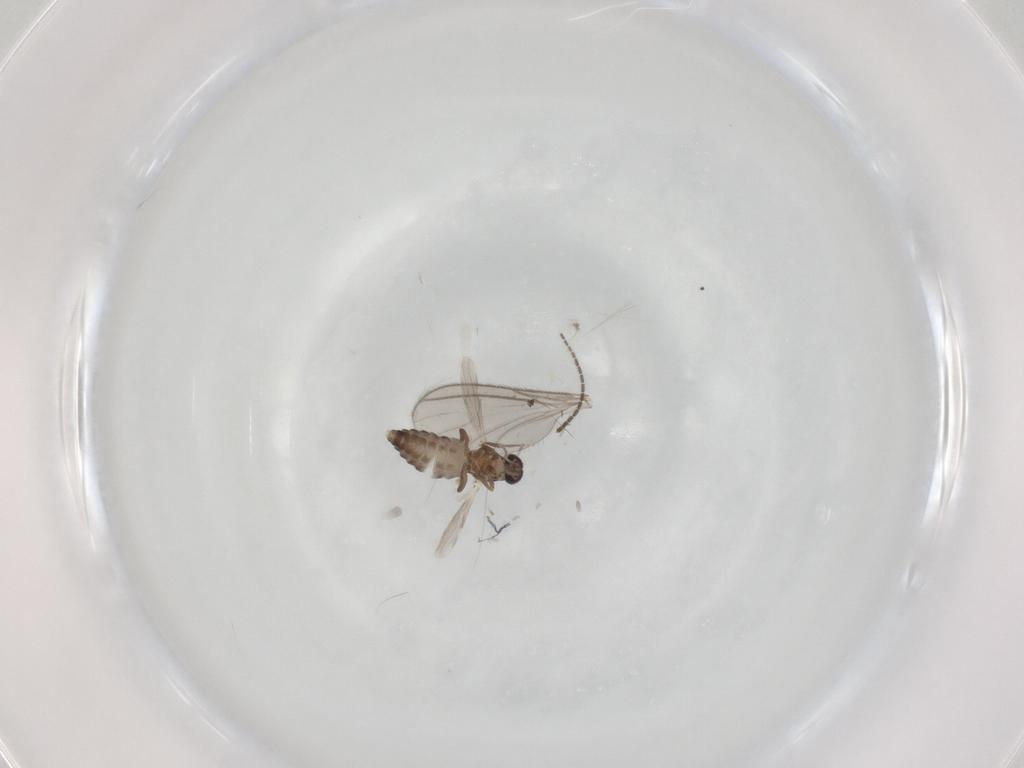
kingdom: Animalia
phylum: Arthropoda
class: Insecta
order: Diptera
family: Ceratopogonidae
